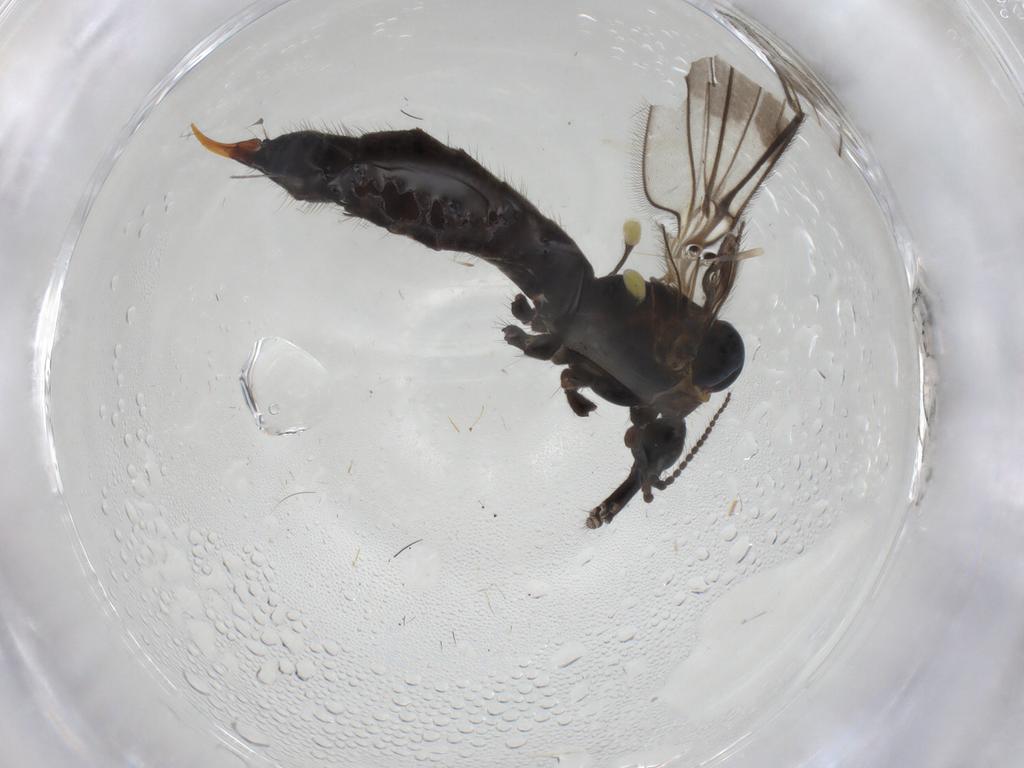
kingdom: Animalia
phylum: Arthropoda
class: Insecta
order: Diptera
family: Limoniidae
